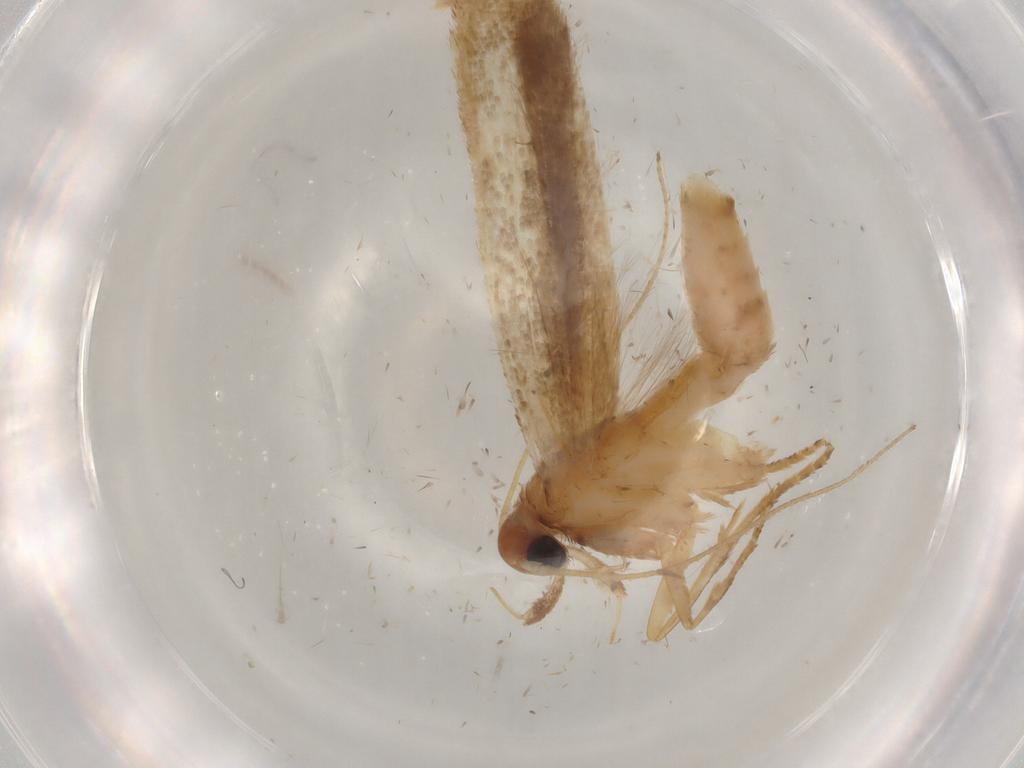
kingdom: Animalia
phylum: Arthropoda
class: Insecta
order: Lepidoptera
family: Gelechiidae
